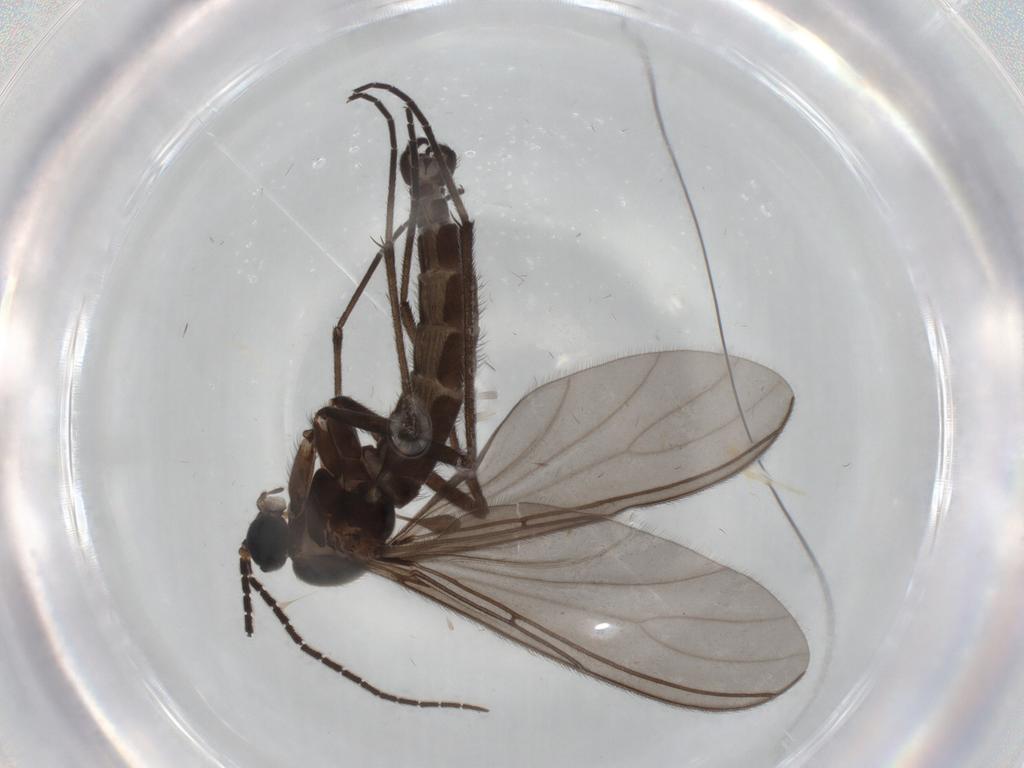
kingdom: Animalia
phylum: Arthropoda
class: Insecta
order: Diptera
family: Sciaridae
